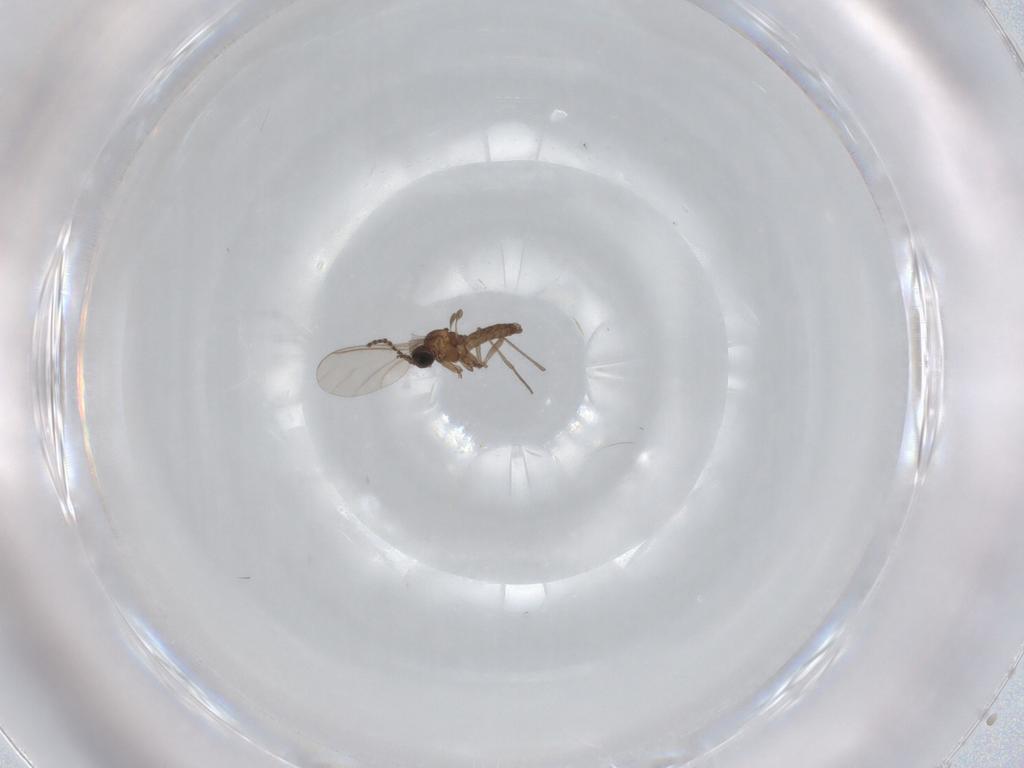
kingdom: Animalia
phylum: Arthropoda
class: Insecta
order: Diptera
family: Sciaridae
